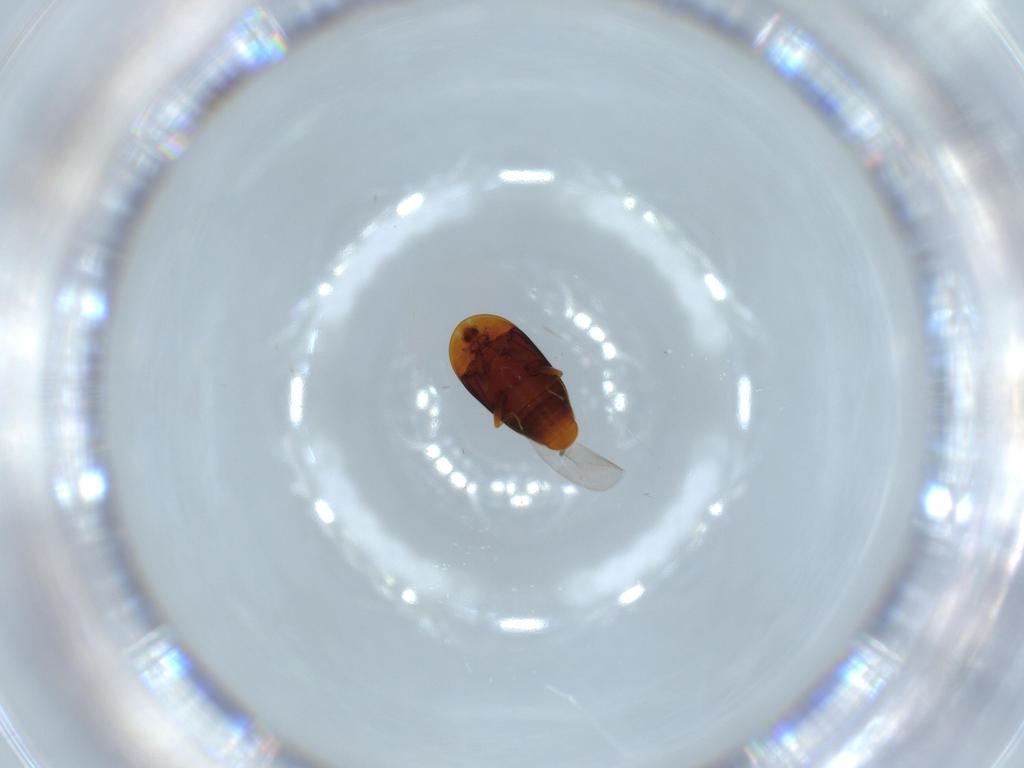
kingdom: Animalia
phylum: Arthropoda
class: Insecta
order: Coleoptera
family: Corylophidae
